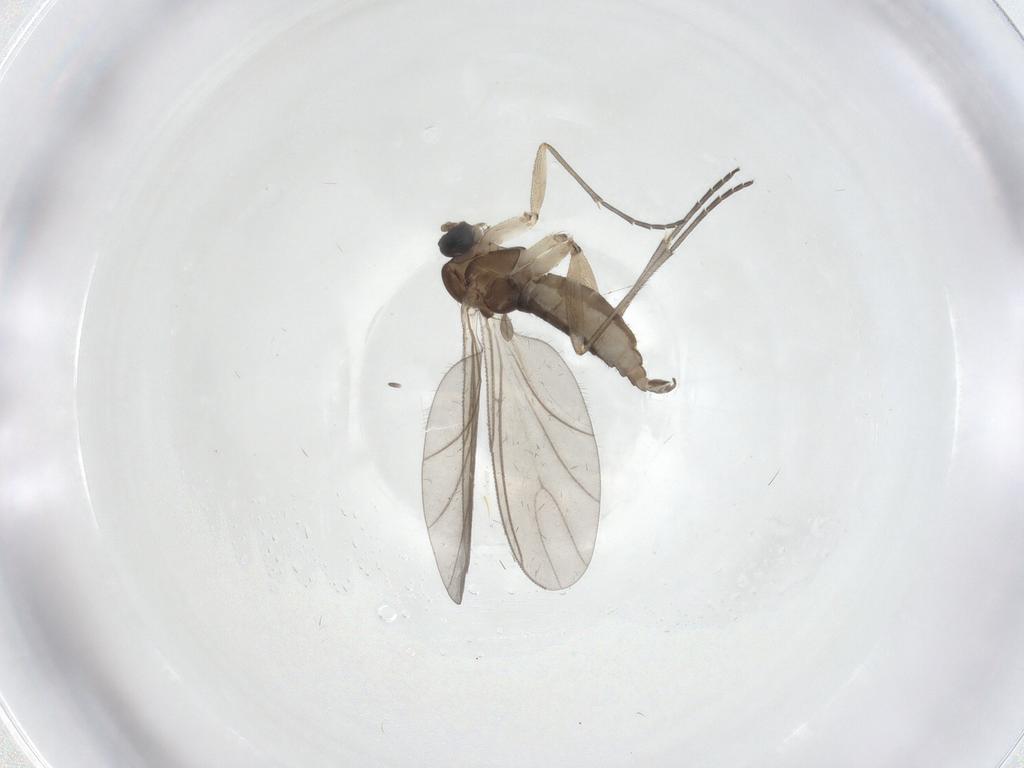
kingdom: Animalia
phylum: Arthropoda
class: Insecta
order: Diptera
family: Sciaridae
